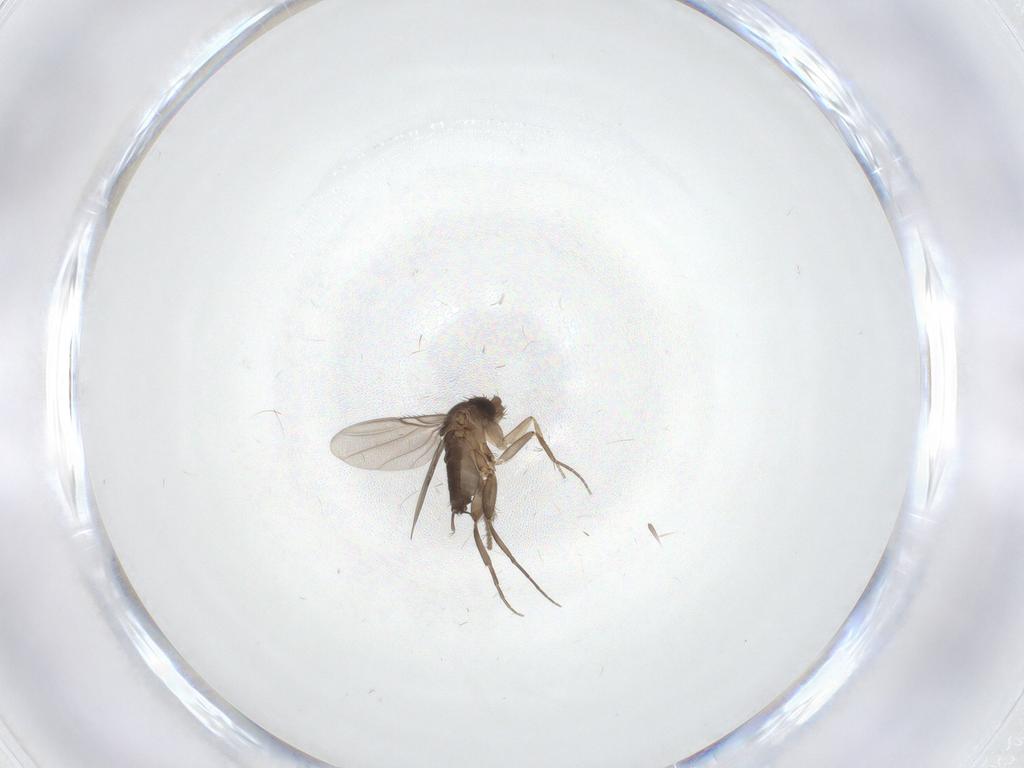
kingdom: Animalia
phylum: Arthropoda
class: Insecta
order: Diptera
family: Phoridae
